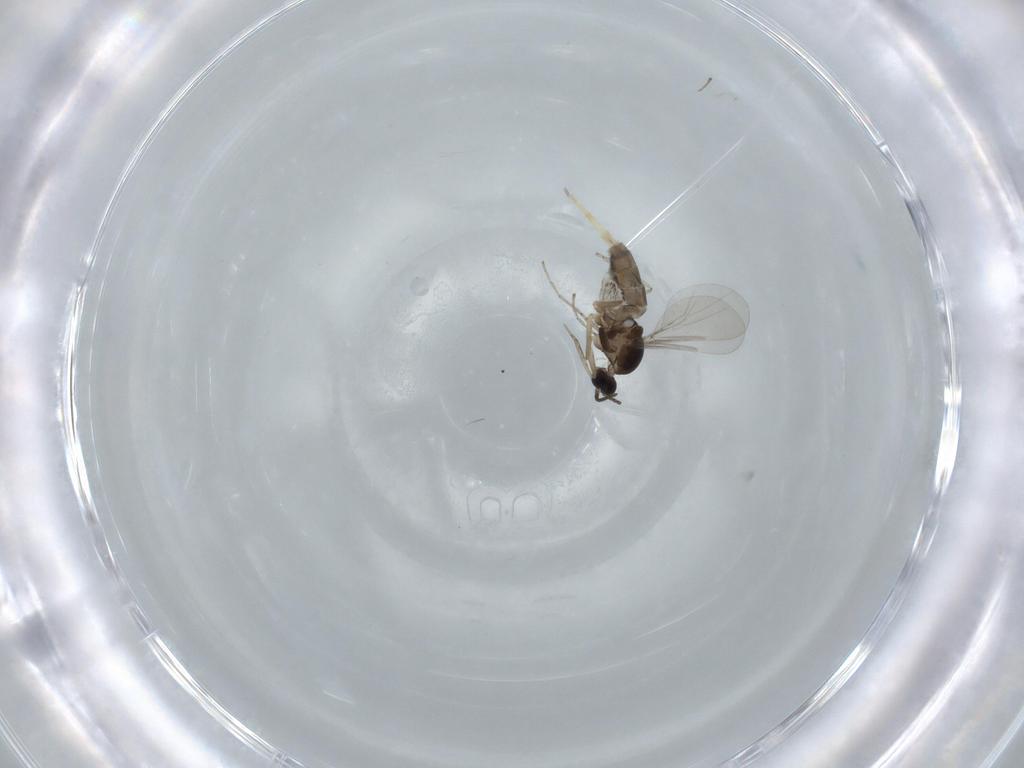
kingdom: Animalia
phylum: Arthropoda
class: Insecta
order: Diptera
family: Cecidomyiidae
